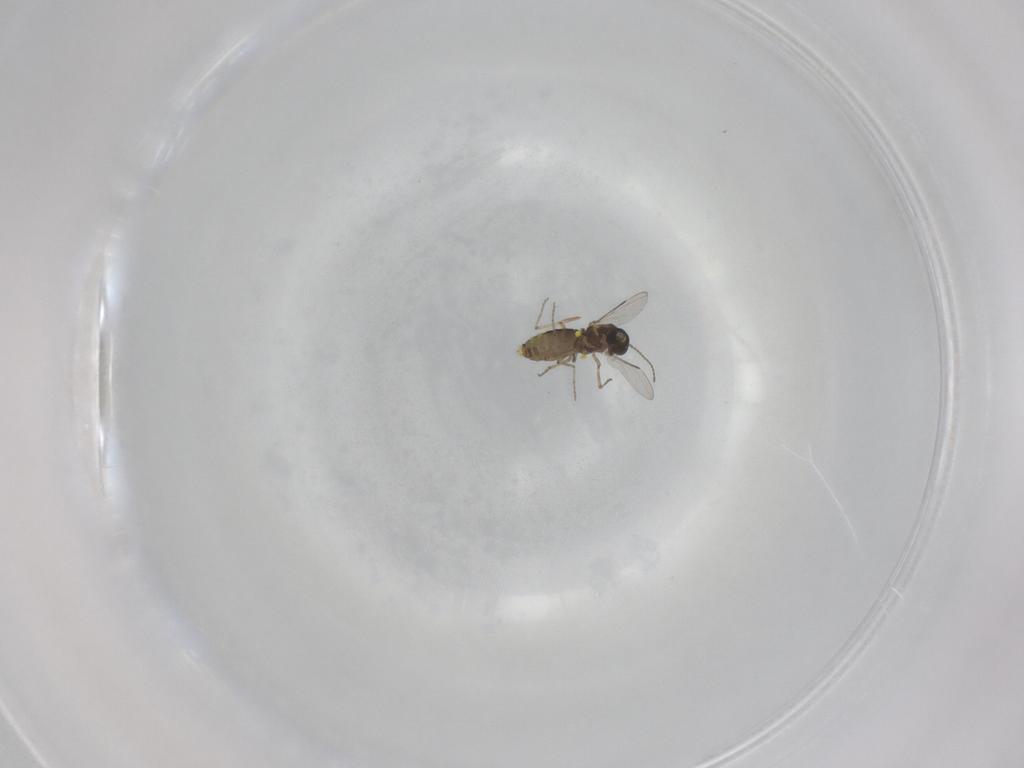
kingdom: Animalia
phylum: Arthropoda
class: Insecta
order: Diptera
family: Ceratopogonidae
